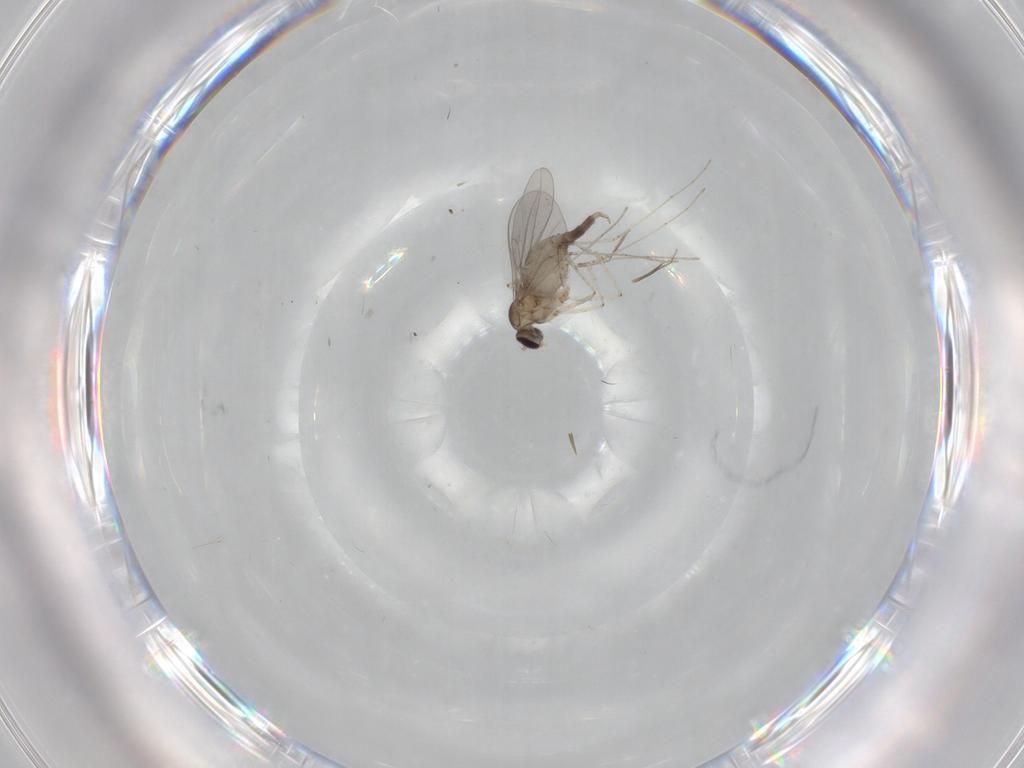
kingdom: Animalia
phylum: Arthropoda
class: Insecta
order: Diptera
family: Cecidomyiidae
